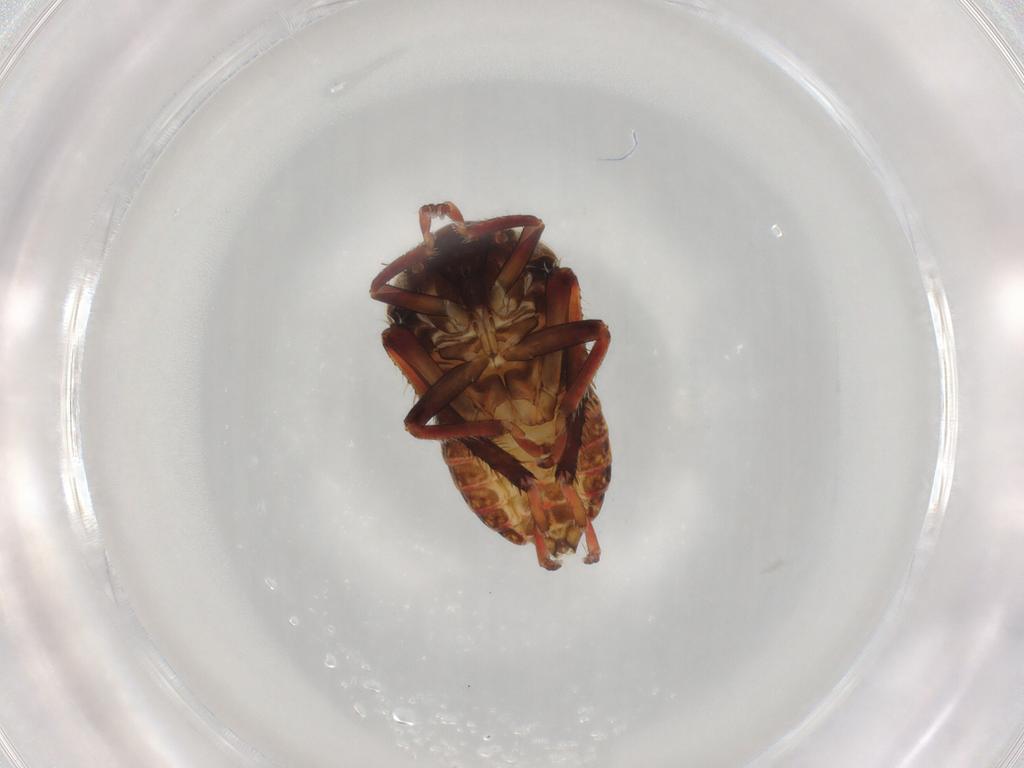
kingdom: Animalia
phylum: Arthropoda
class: Insecta
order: Hemiptera
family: Cicadellidae
